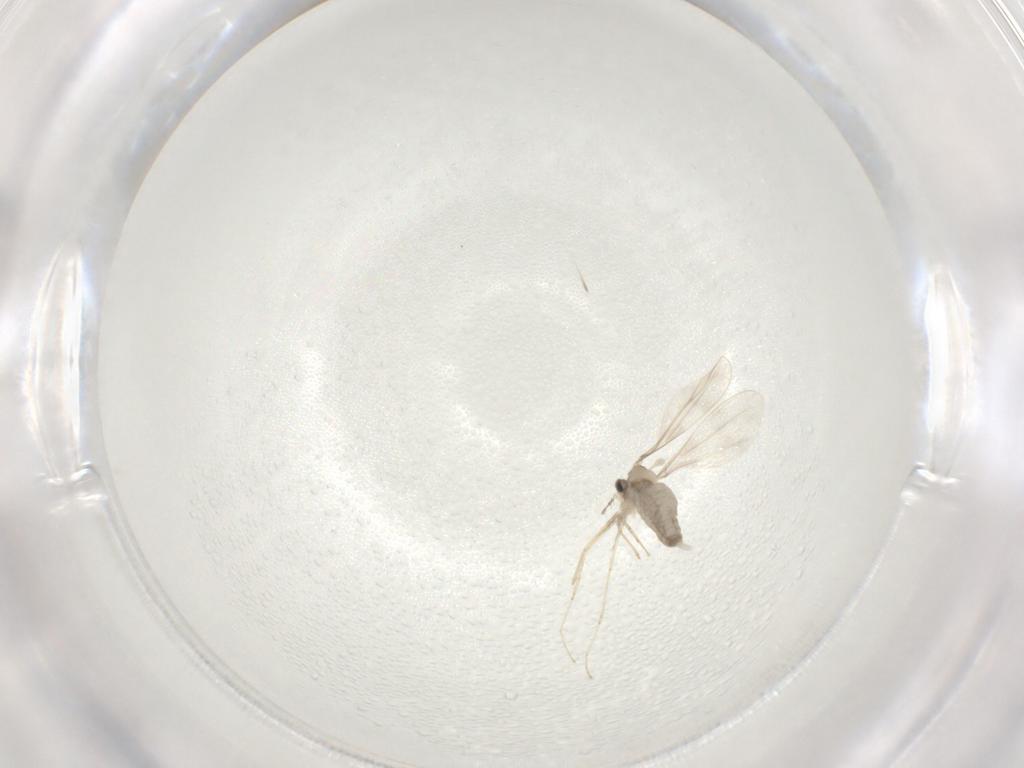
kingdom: Animalia
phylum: Arthropoda
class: Insecta
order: Diptera
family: Cecidomyiidae
